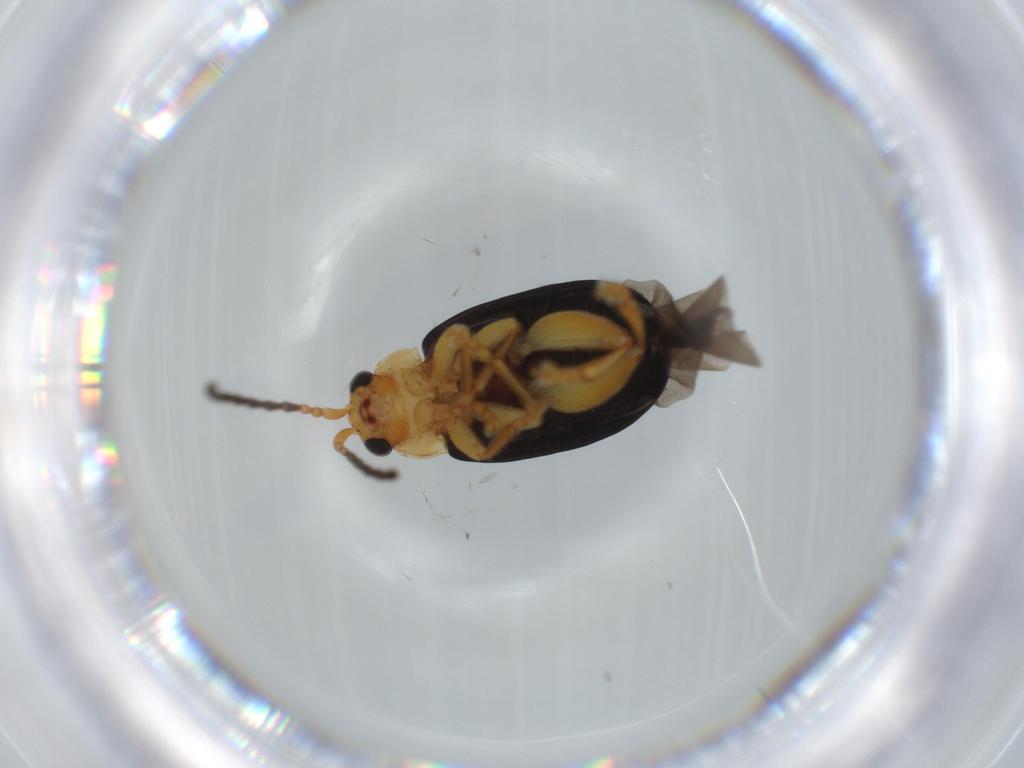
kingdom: Animalia
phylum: Arthropoda
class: Insecta
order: Coleoptera
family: Chrysomelidae
